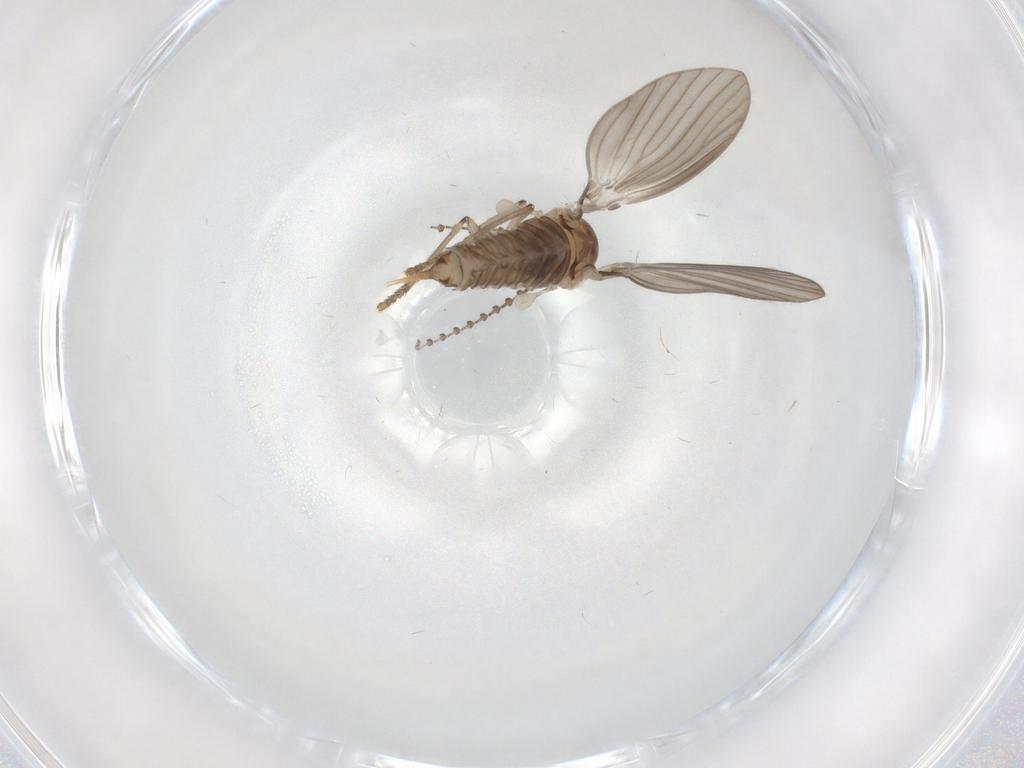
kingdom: Animalia
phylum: Arthropoda
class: Insecta
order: Diptera
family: Psychodidae
